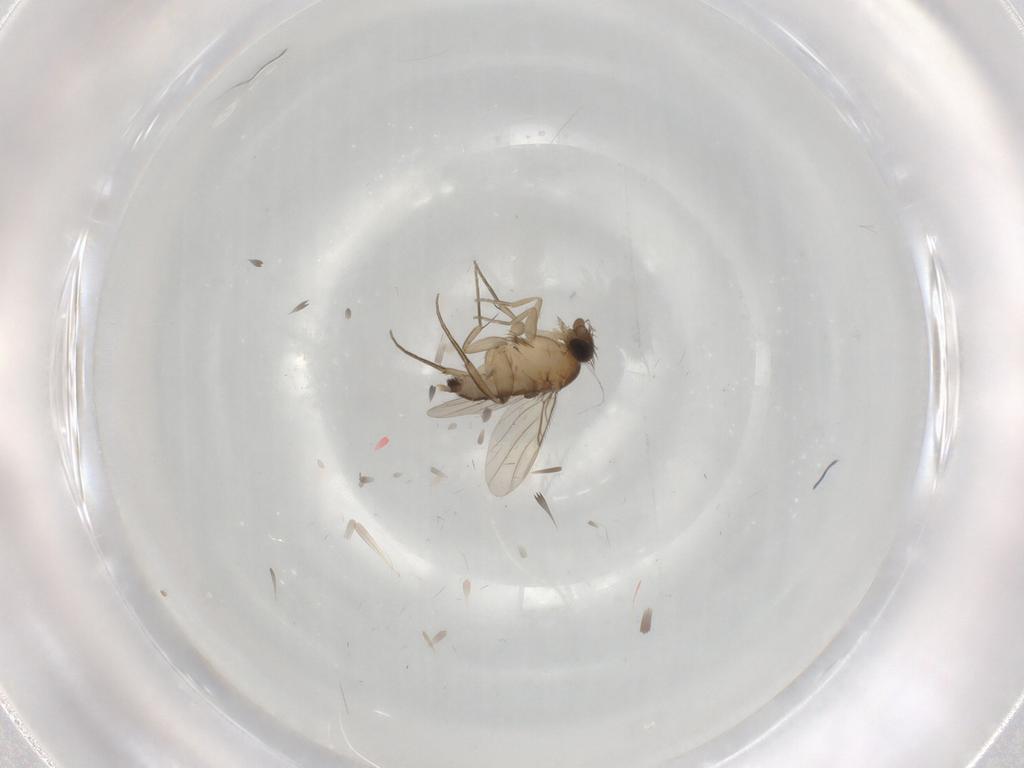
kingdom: Animalia
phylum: Arthropoda
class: Insecta
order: Diptera
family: Phoridae
